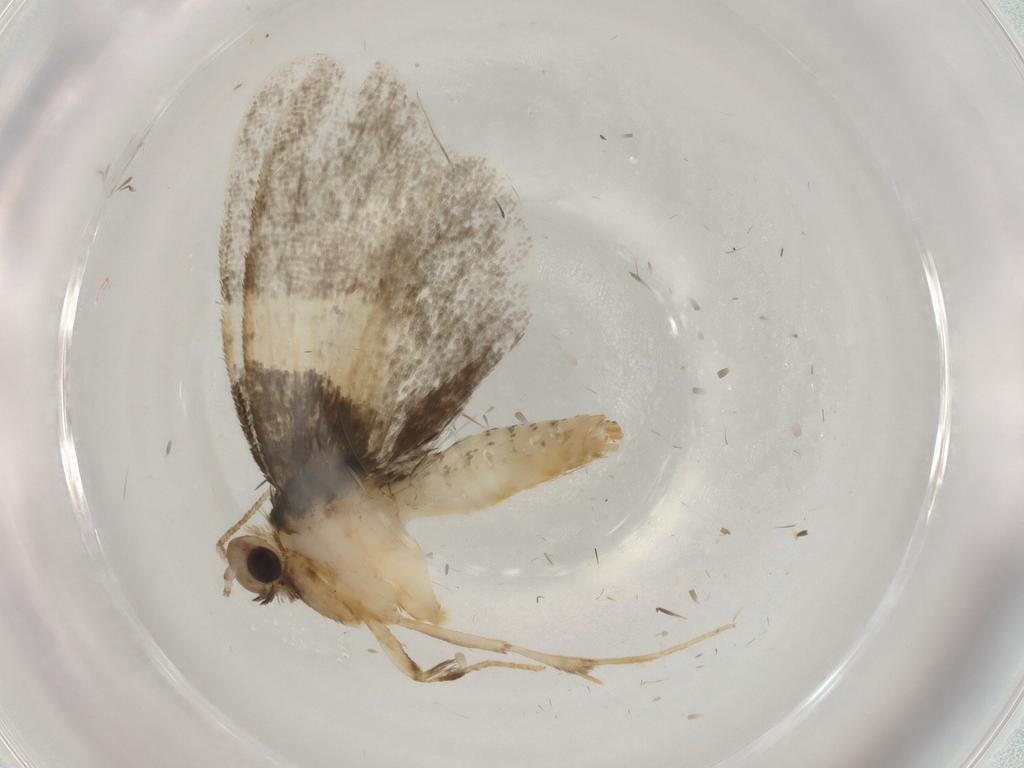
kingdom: Animalia
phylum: Arthropoda
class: Insecta
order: Lepidoptera
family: Psychidae
